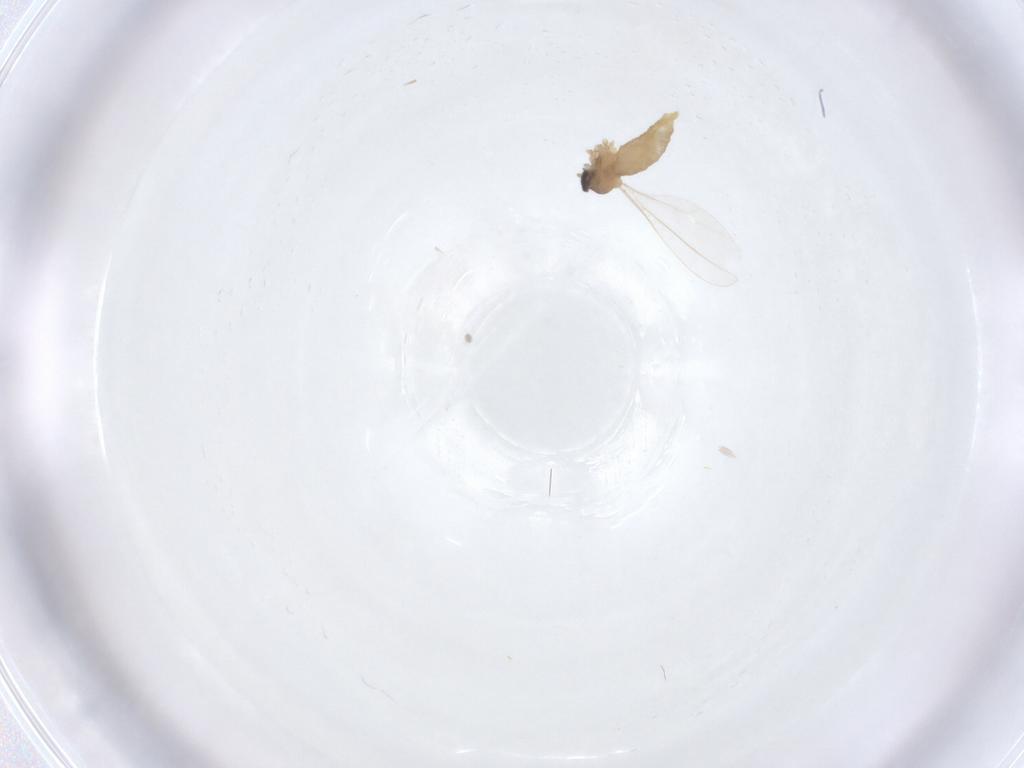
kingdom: Animalia
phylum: Arthropoda
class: Insecta
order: Diptera
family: Cecidomyiidae
